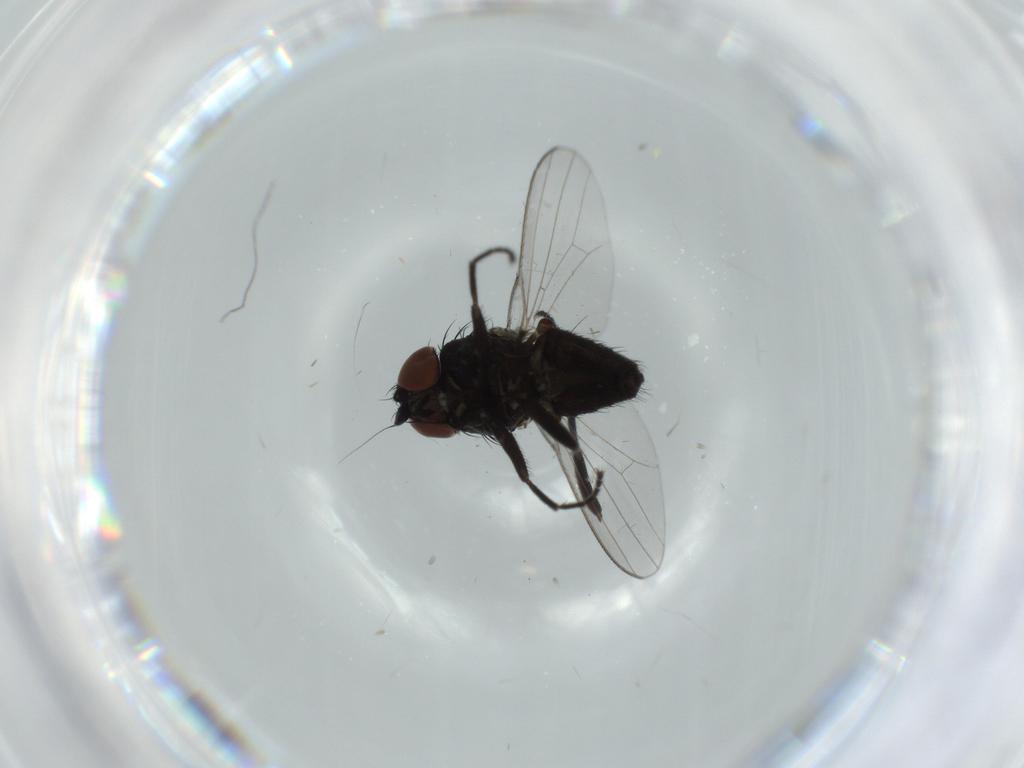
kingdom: Animalia
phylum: Arthropoda
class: Insecta
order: Diptera
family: Milichiidae
